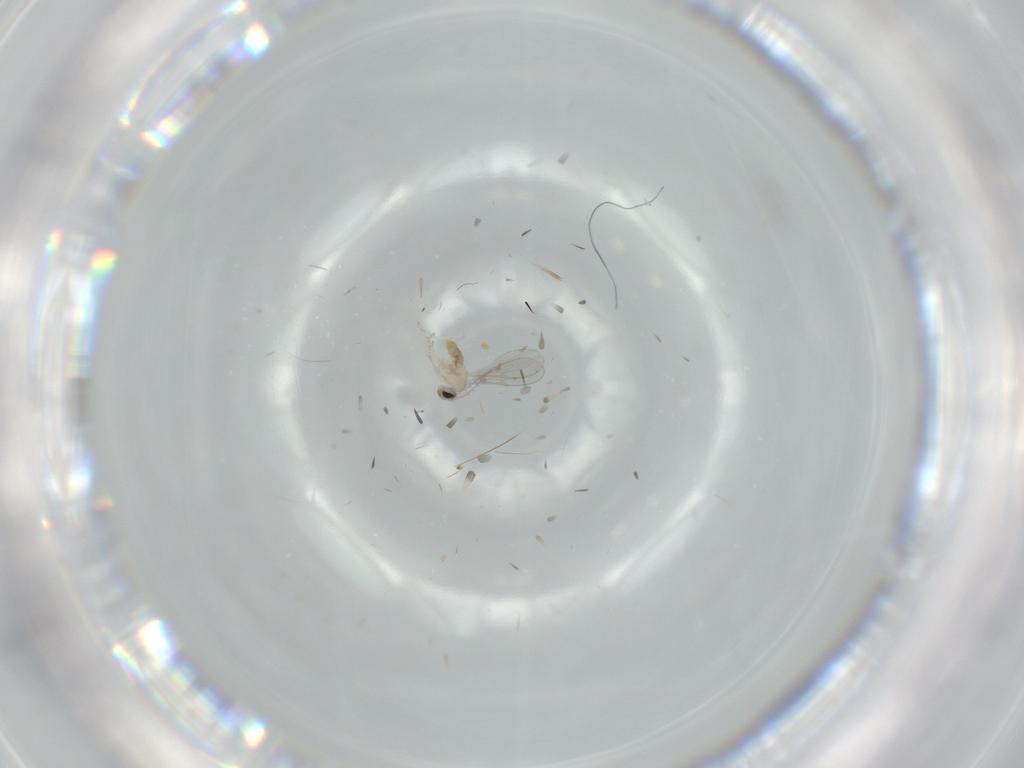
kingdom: Animalia
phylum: Arthropoda
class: Insecta
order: Diptera
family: Cecidomyiidae
